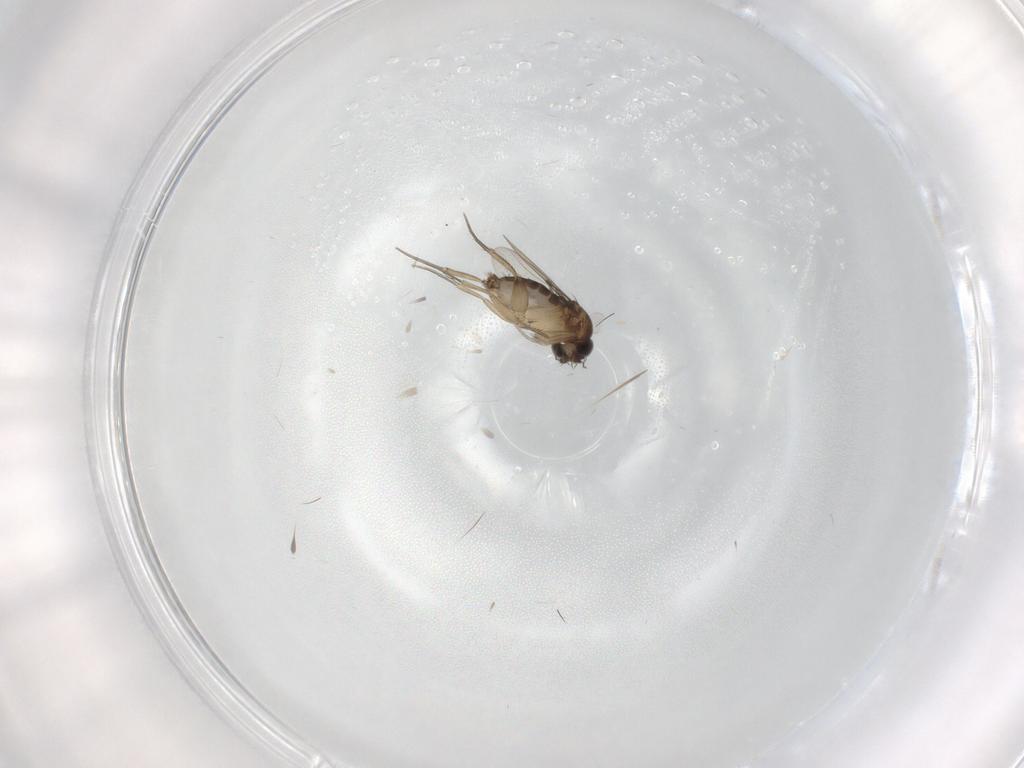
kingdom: Animalia
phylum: Arthropoda
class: Insecta
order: Diptera
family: Phoridae
